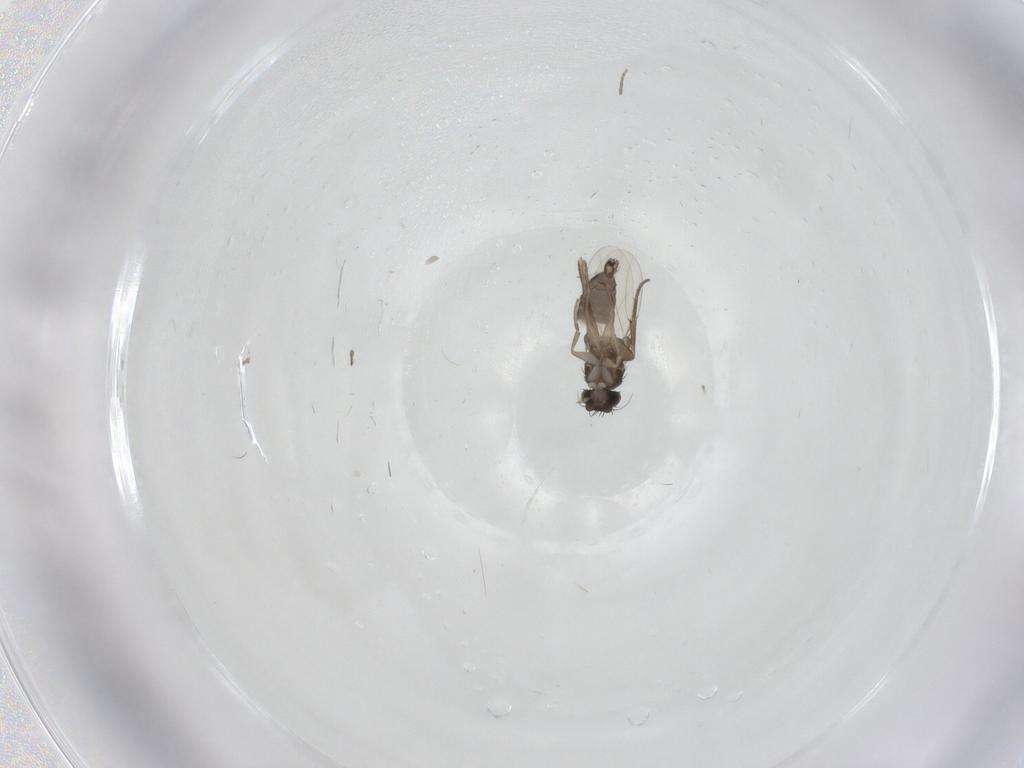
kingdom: Animalia
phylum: Arthropoda
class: Insecta
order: Diptera
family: Phoridae
